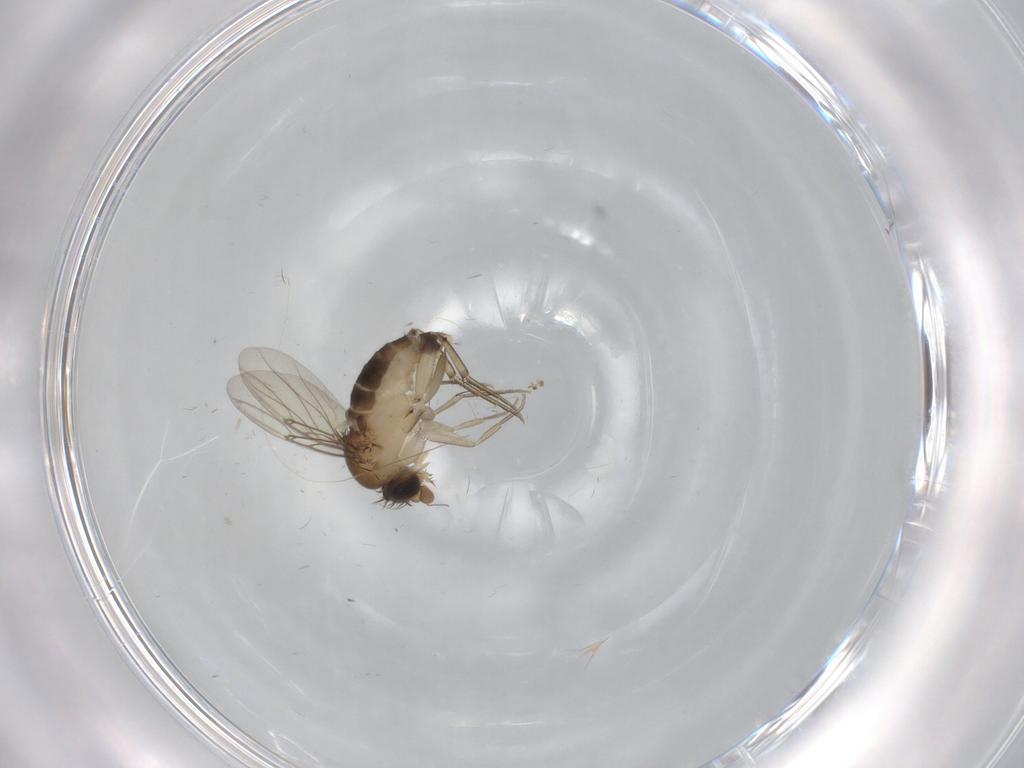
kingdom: Animalia
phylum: Arthropoda
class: Insecta
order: Diptera
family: Phoridae
